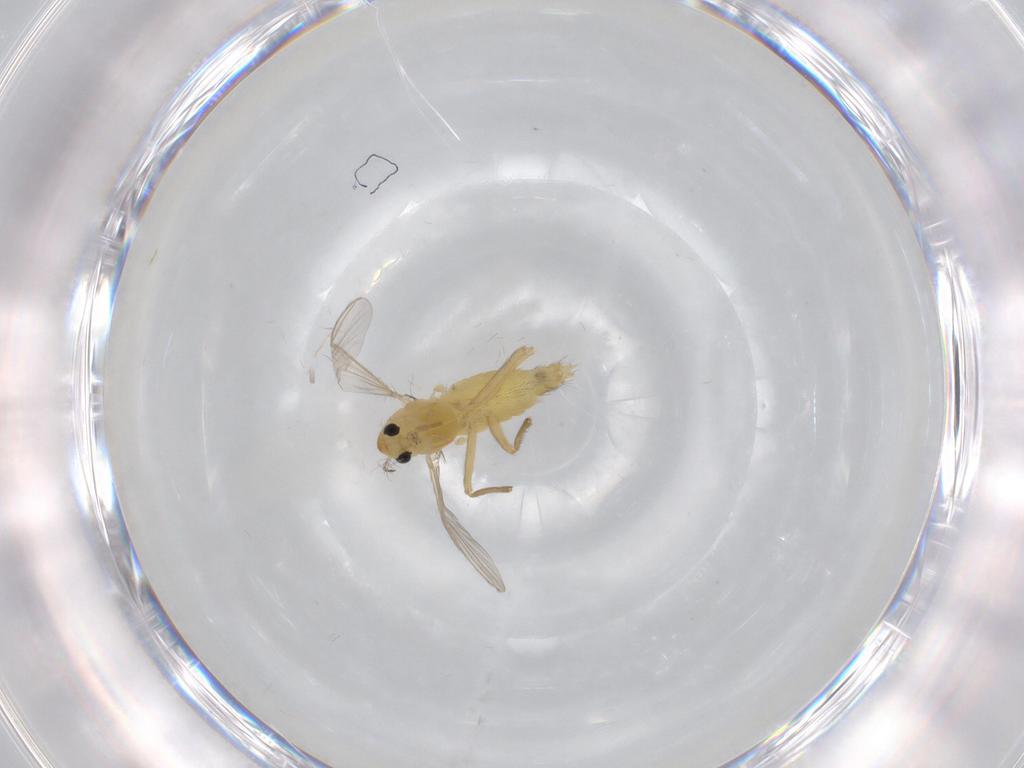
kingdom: Animalia
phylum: Arthropoda
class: Insecta
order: Diptera
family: Chironomidae
